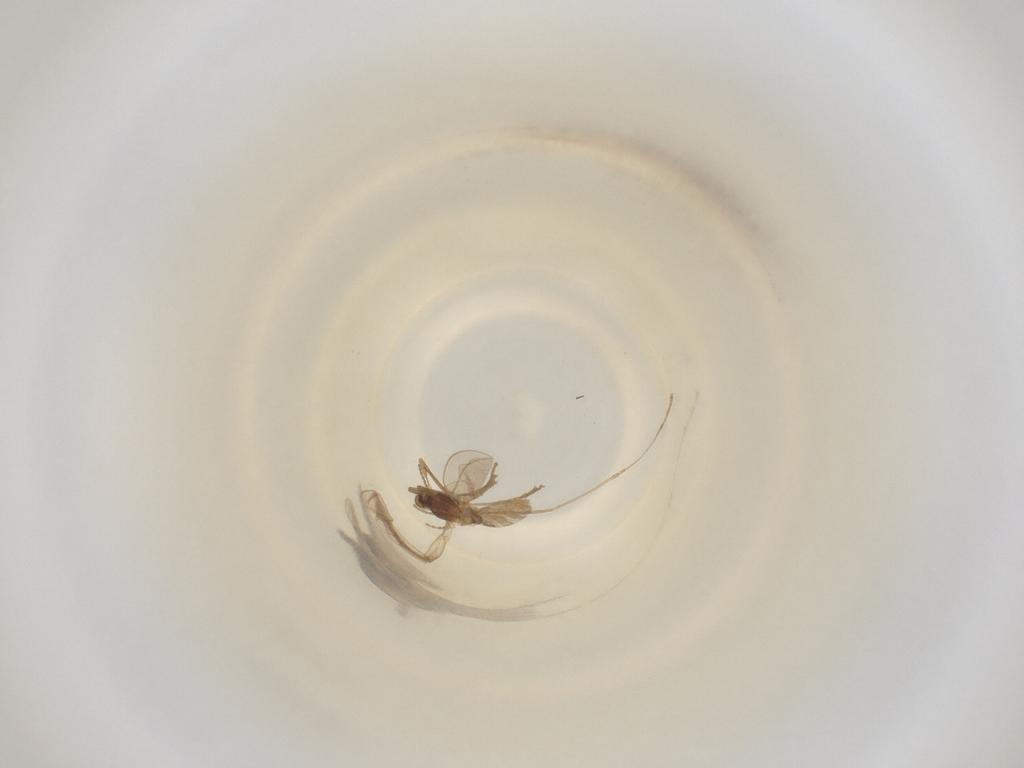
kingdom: Animalia
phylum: Arthropoda
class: Insecta
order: Diptera
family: Cecidomyiidae
